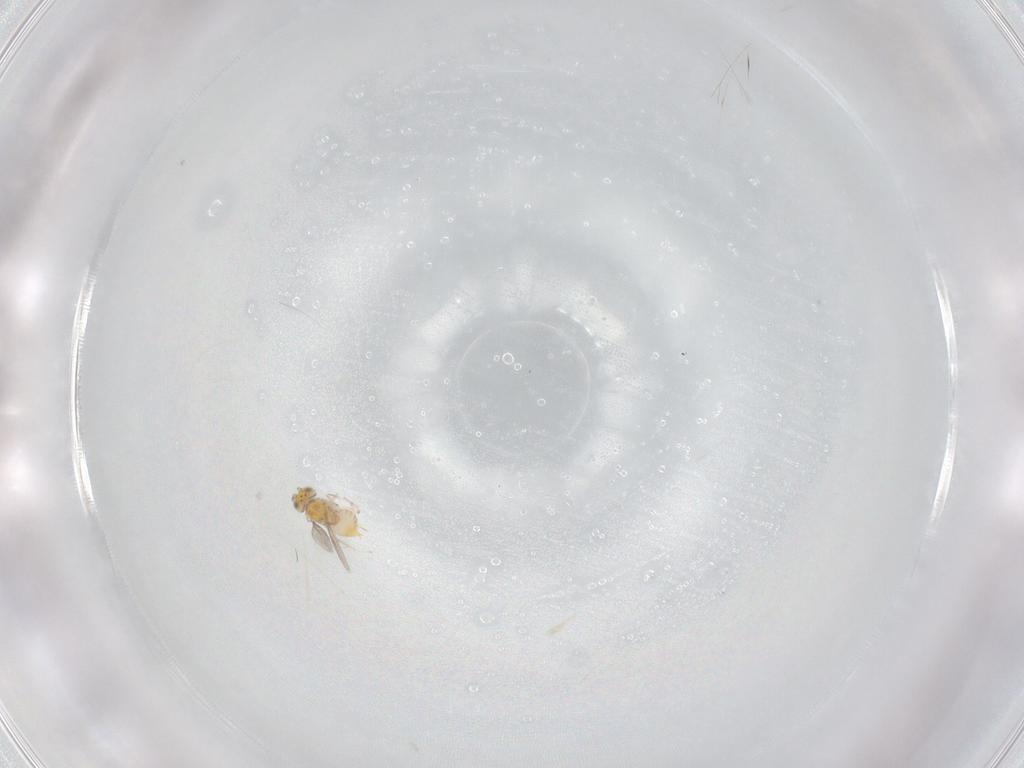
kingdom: Animalia
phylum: Arthropoda
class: Insecta
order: Hymenoptera
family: Aphelinidae
